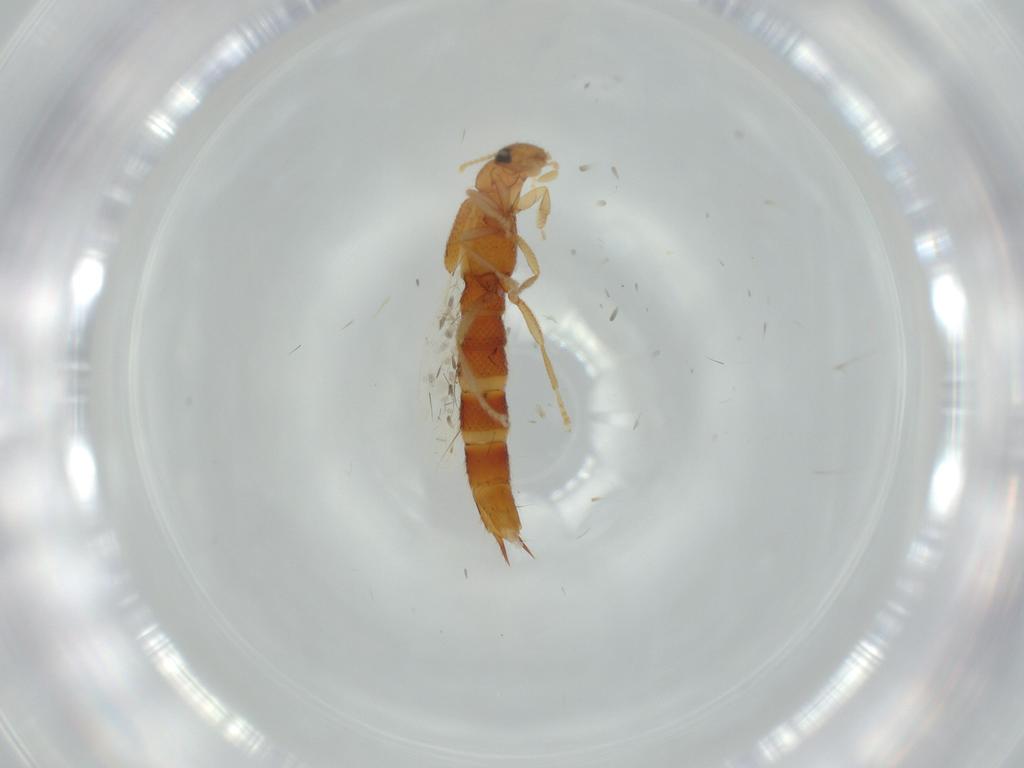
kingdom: Animalia
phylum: Arthropoda
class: Insecta
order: Coleoptera
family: Staphylinidae
